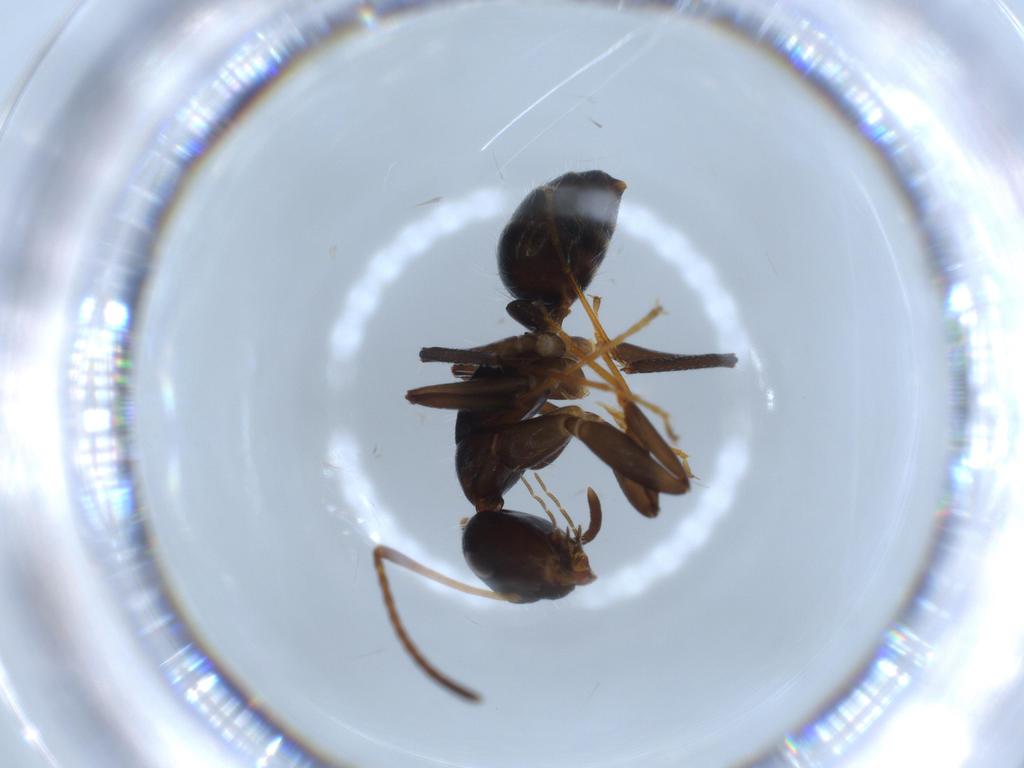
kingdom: Animalia
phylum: Arthropoda
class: Insecta
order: Hymenoptera
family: Formicidae
